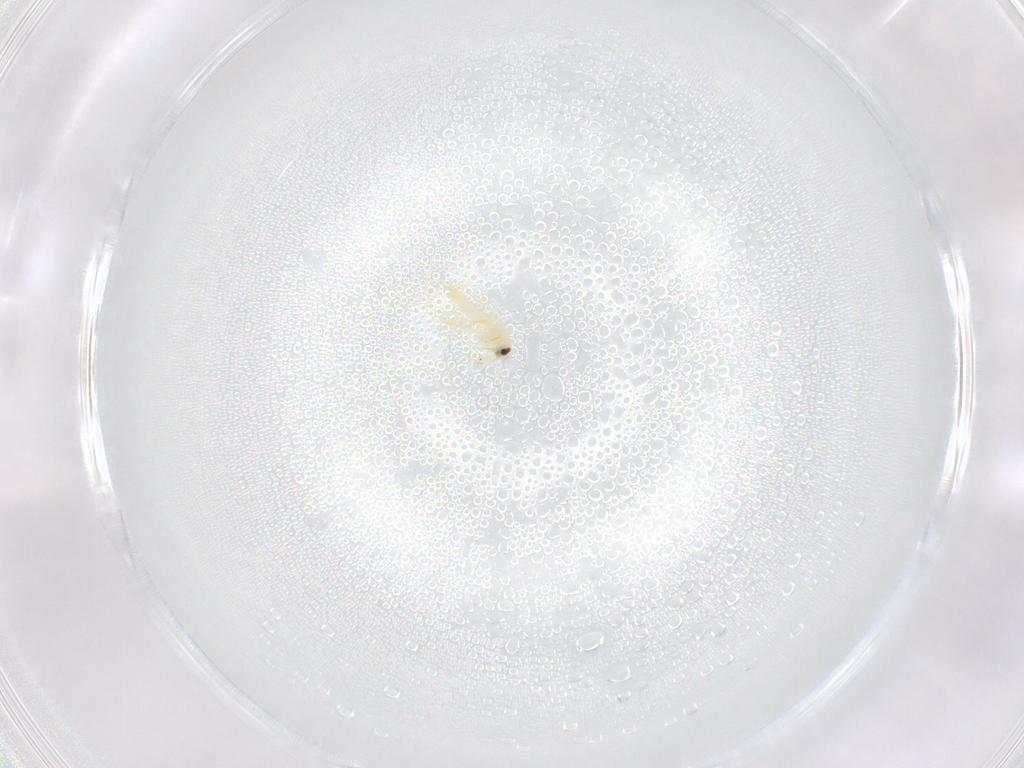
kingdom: Animalia
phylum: Arthropoda
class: Insecta
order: Hemiptera
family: Aleyrodidae
